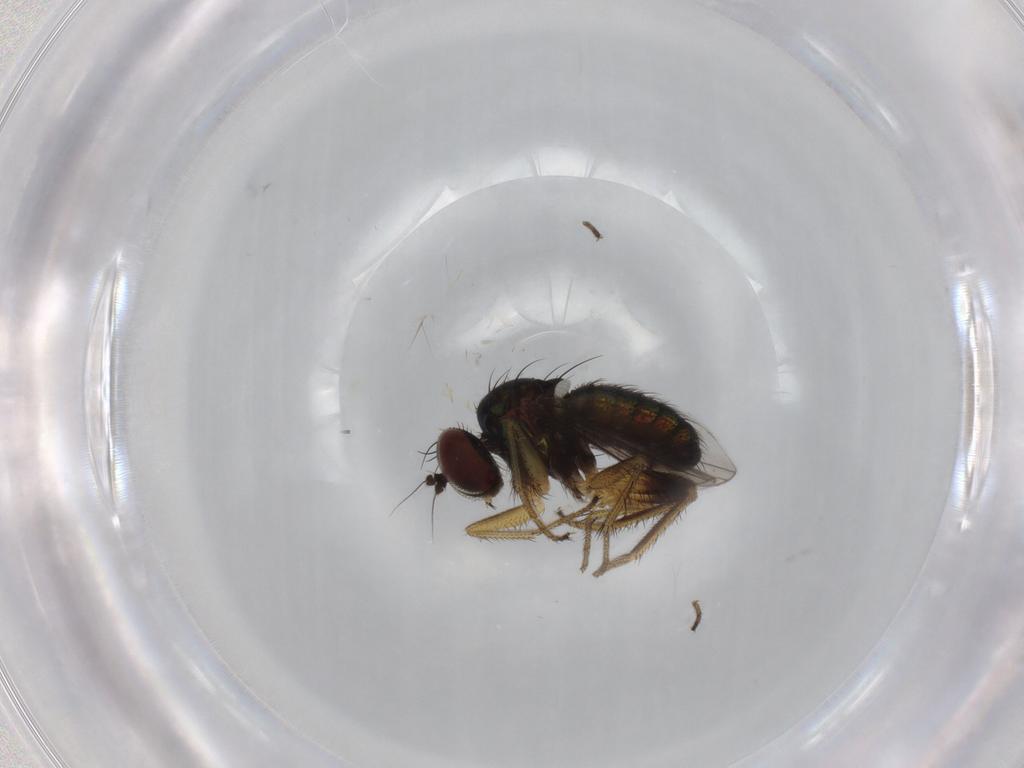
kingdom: Animalia
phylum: Arthropoda
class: Insecta
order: Diptera
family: Dolichopodidae
